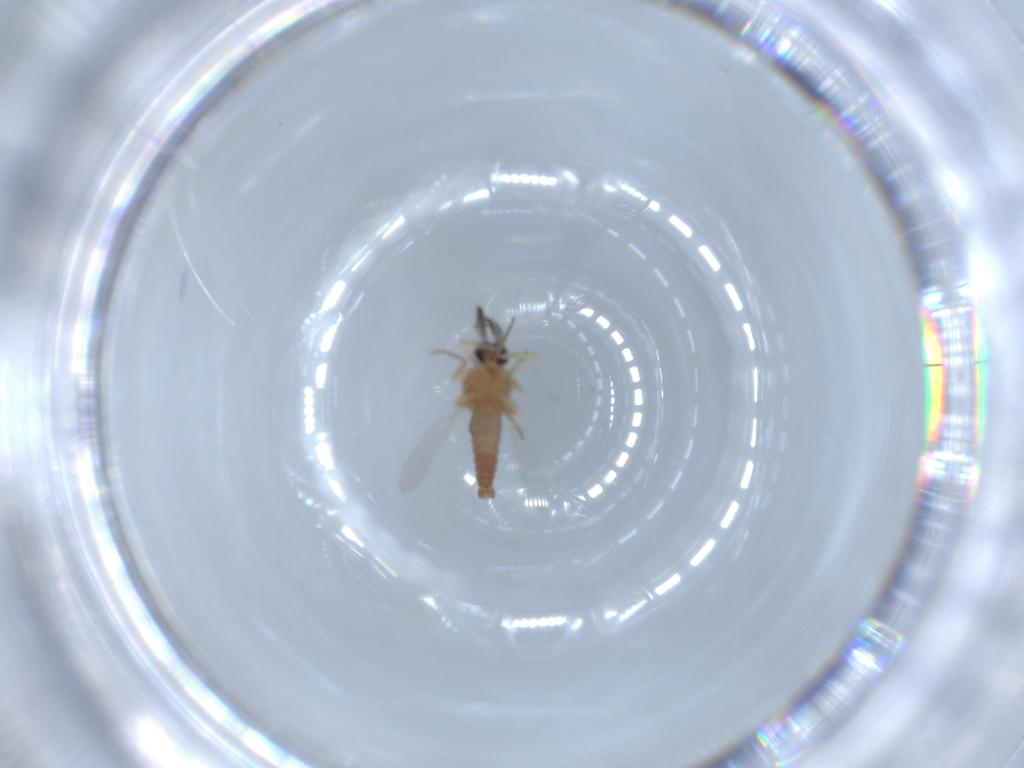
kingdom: Animalia
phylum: Arthropoda
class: Insecta
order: Diptera
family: Ceratopogonidae
